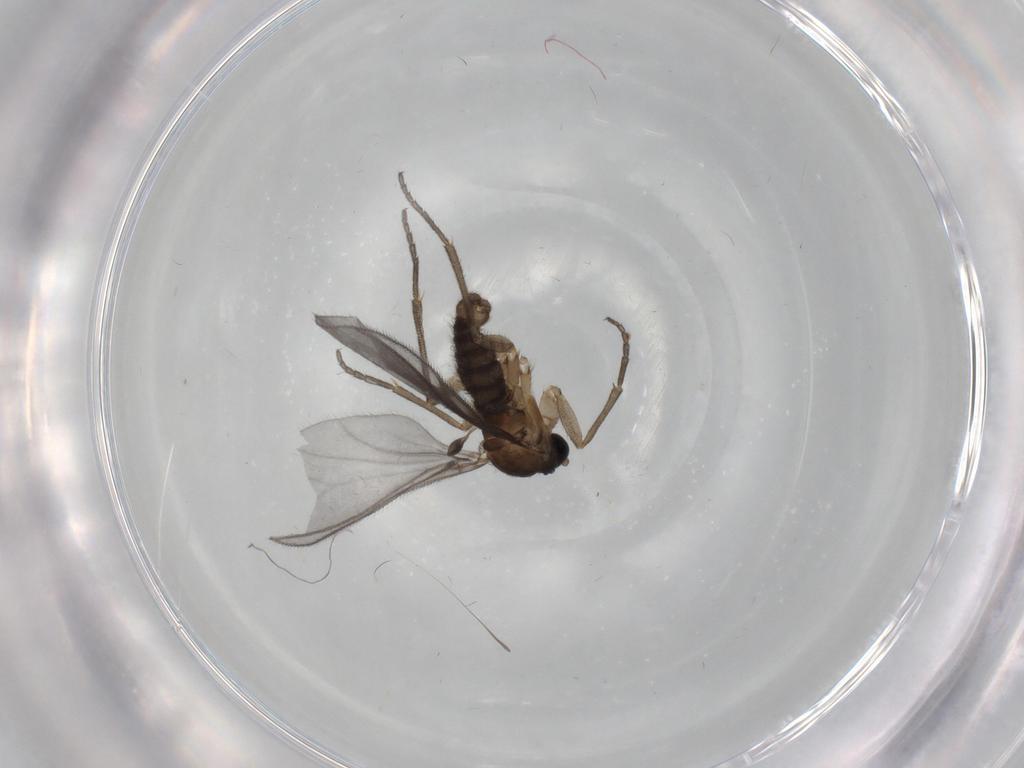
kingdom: Animalia
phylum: Arthropoda
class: Insecta
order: Diptera
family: Sciaridae
